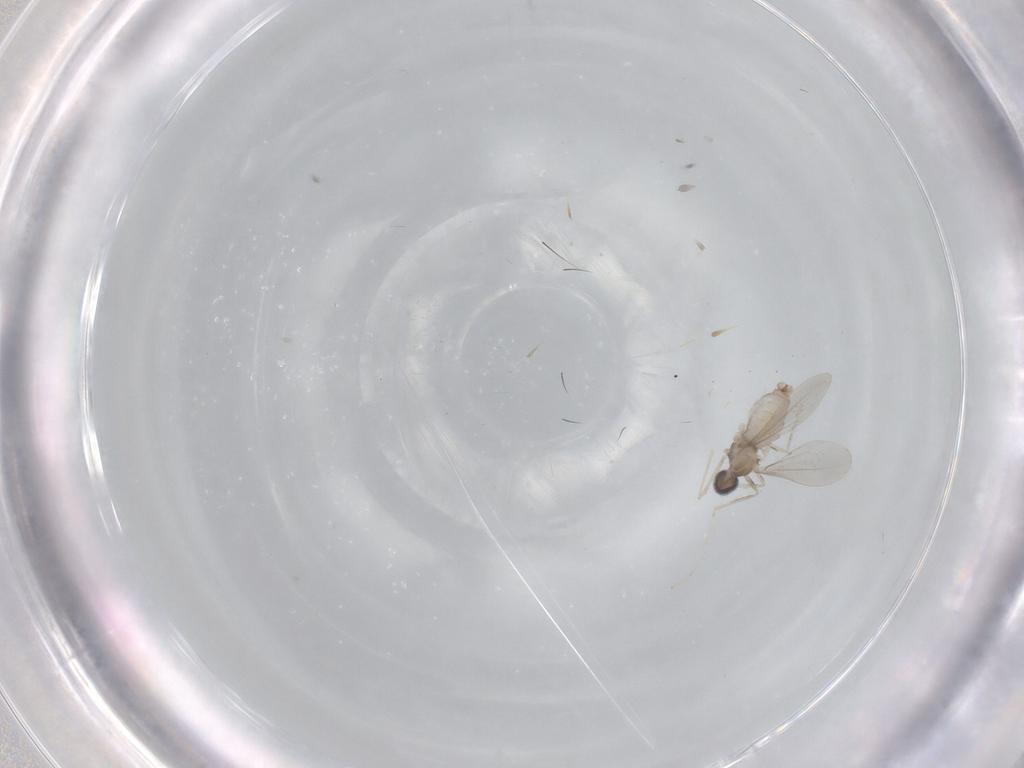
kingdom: Animalia
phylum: Arthropoda
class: Insecta
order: Diptera
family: Cecidomyiidae
